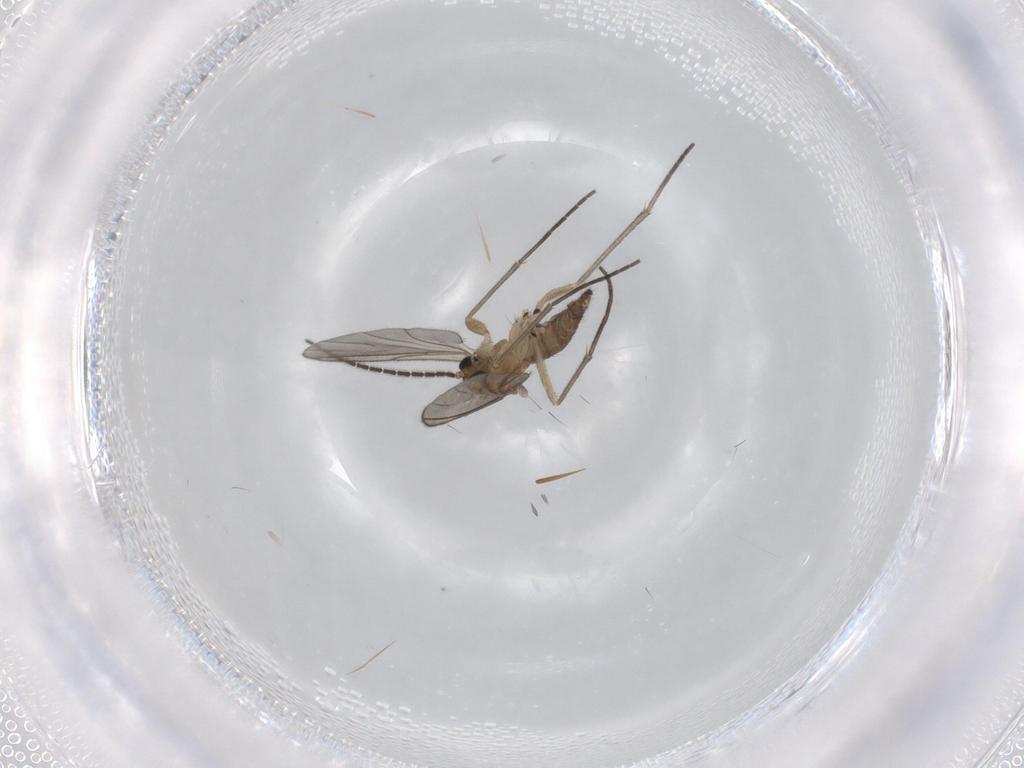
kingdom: Animalia
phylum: Arthropoda
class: Insecta
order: Diptera
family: Sciaridae
